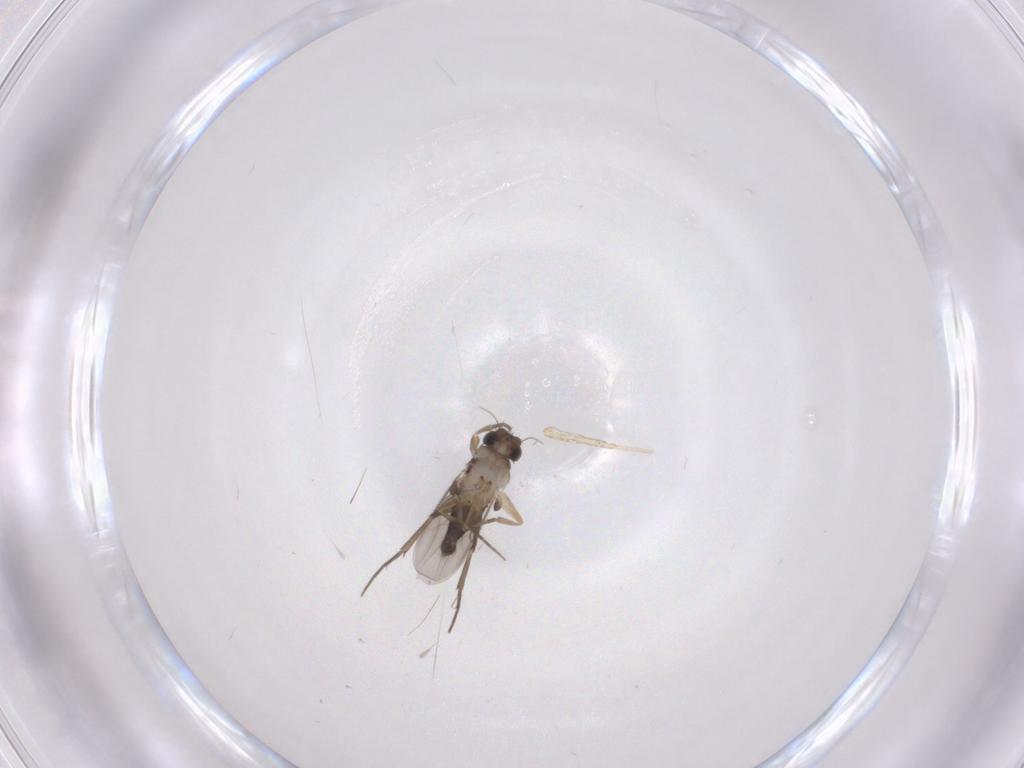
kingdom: Animalia
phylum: Arthropoda
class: Insecta
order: Diptera
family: Phoridae
